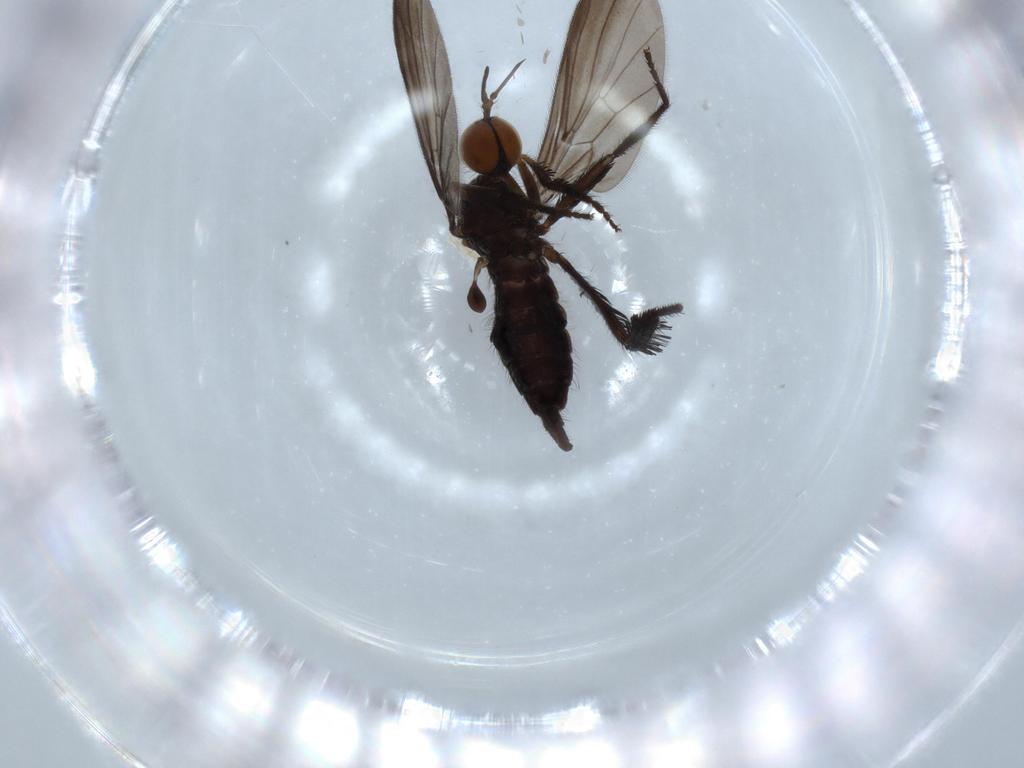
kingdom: Animalia
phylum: Arthropoda
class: Insecta
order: Diptera
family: Empididae
